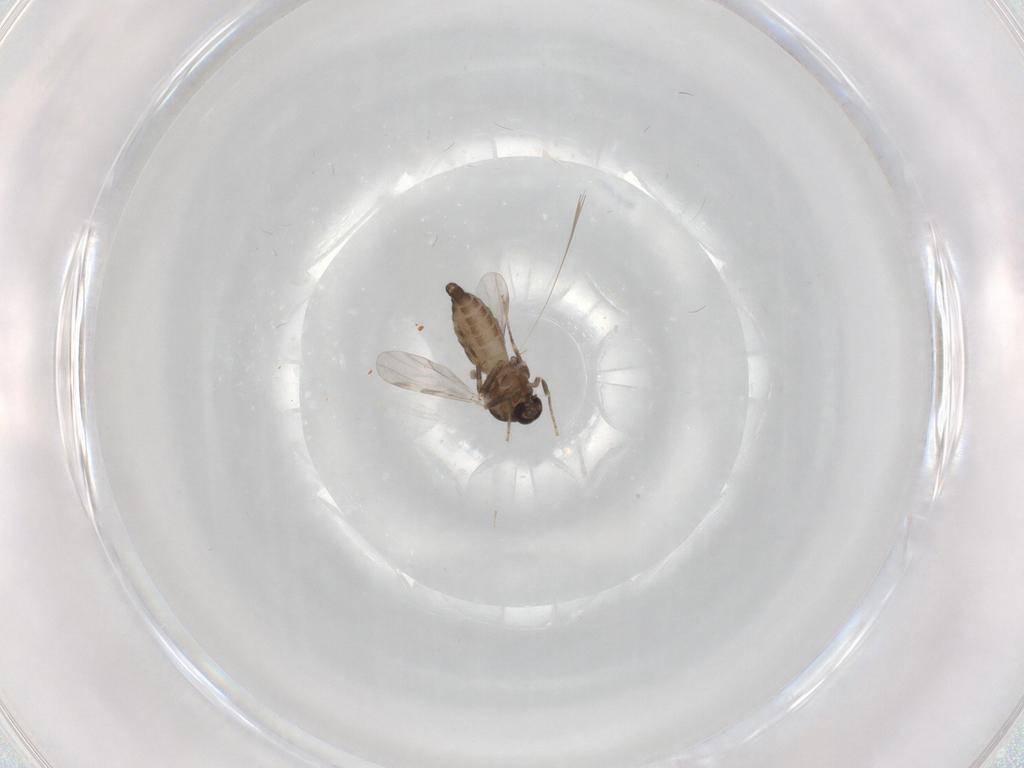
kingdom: Animalia
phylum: Arthropoda
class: Insecta
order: Diptera
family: Ceratopogonidae
